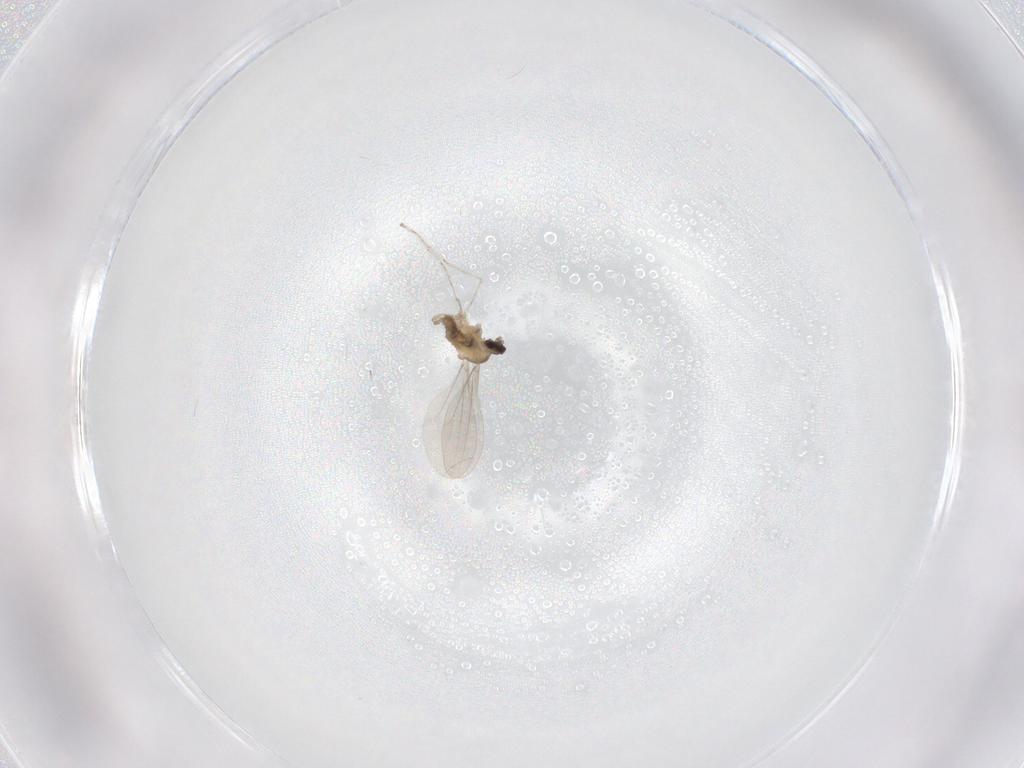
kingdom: Animalia
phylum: Arthropoda
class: Insecta
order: Diptera
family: Cecidomyiidae
